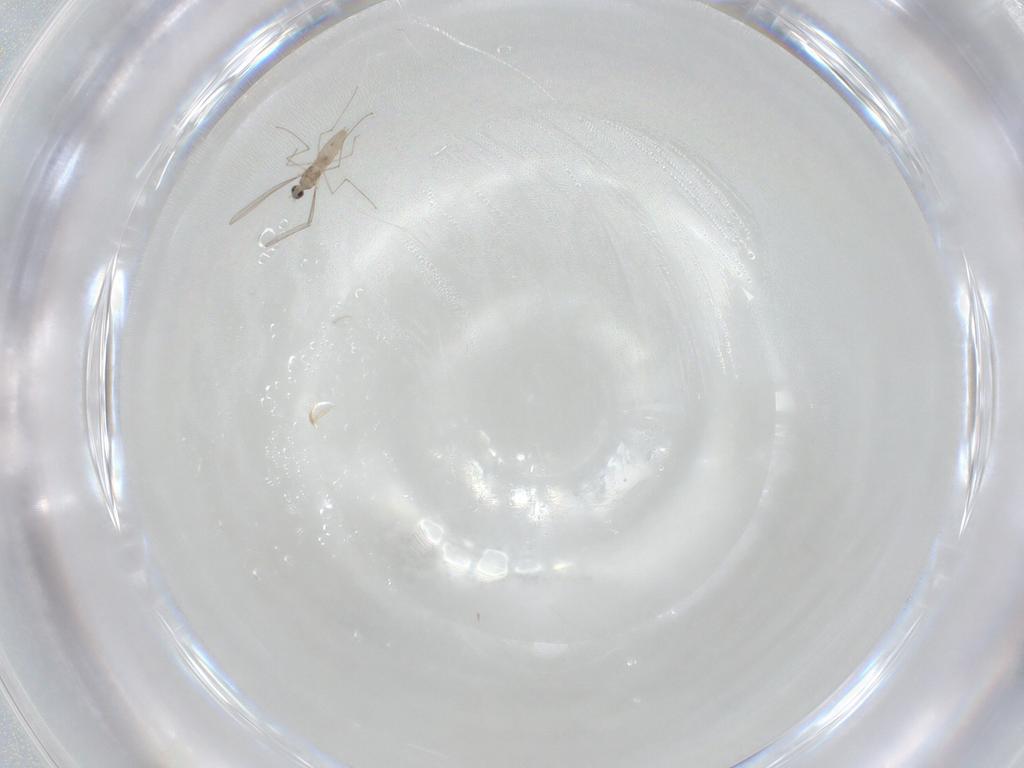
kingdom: Animalia
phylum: Arthropoda
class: Insecta
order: Diptera
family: Cecidomyiidae
